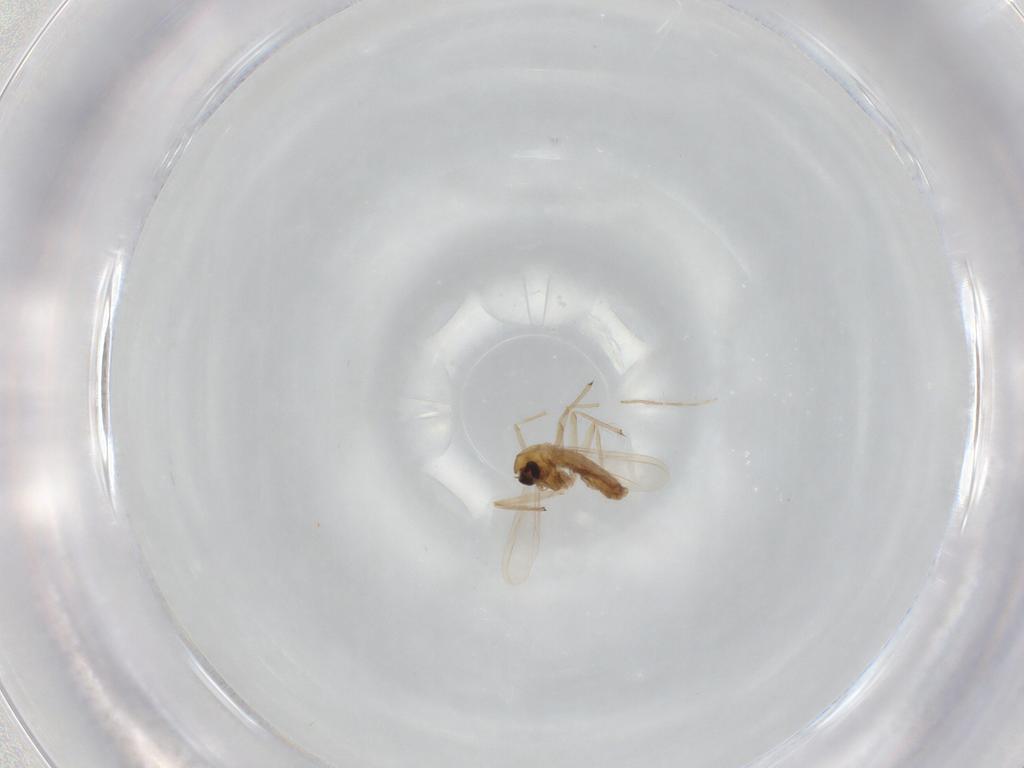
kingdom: Animalia
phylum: Arthropoda
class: Insecta
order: Diptera
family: Chironomidae
